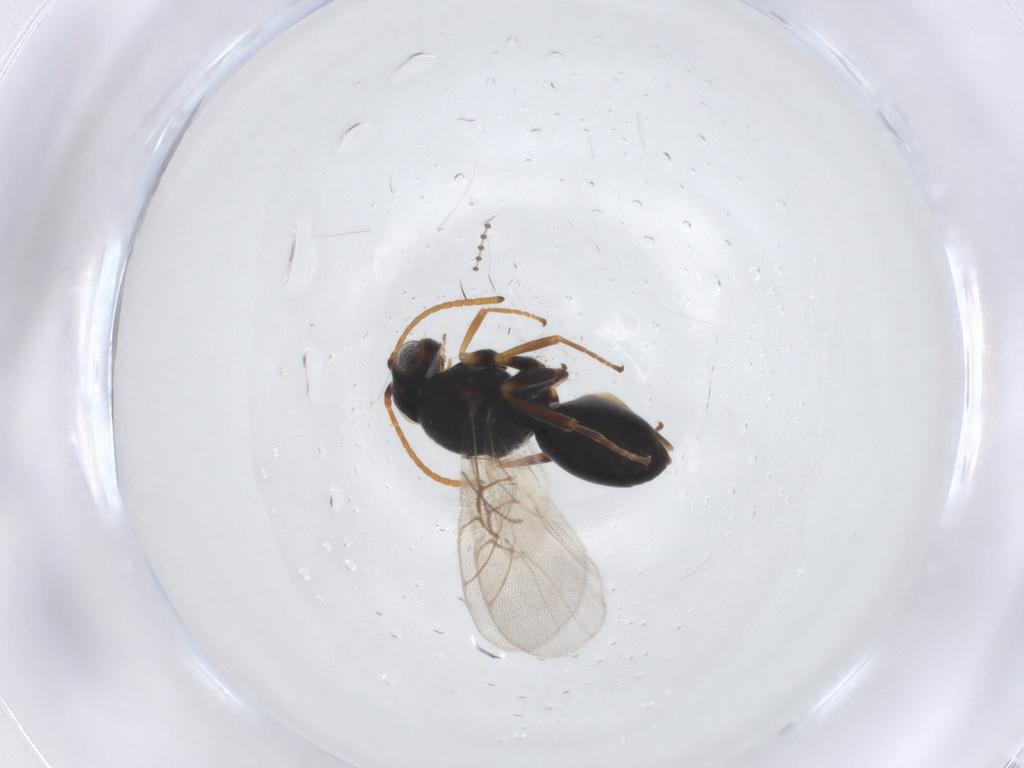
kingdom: Animalia
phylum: Arthropoda
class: Insecta
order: Hymenoptera
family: Cynipidae
